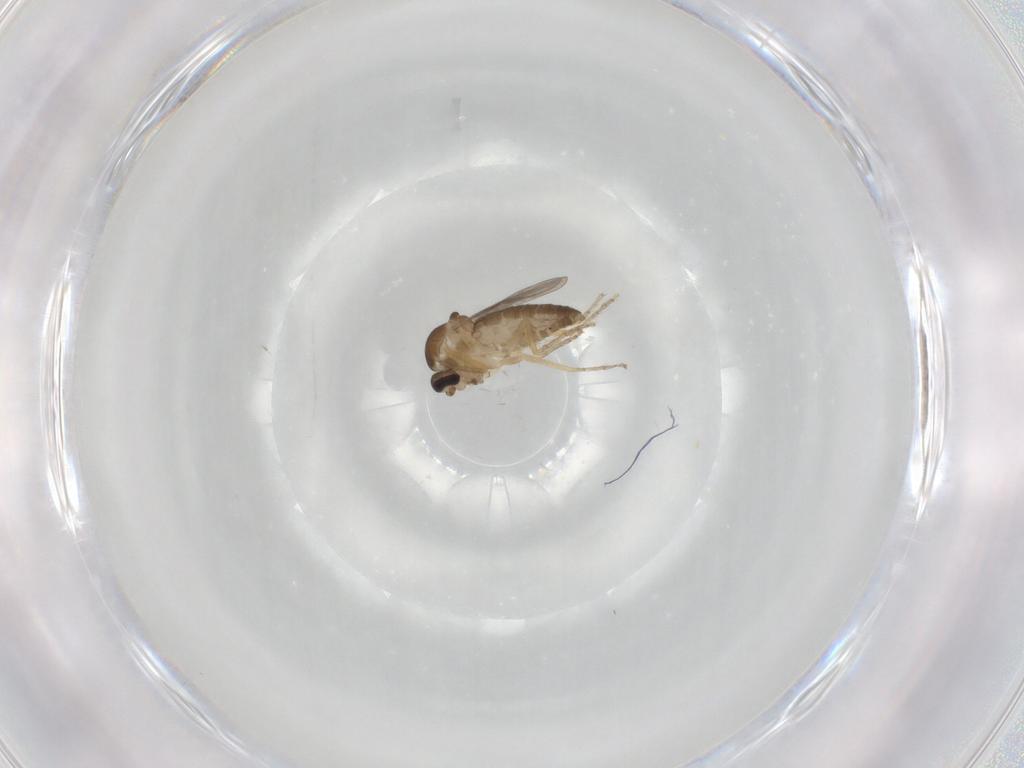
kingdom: Animalia
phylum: Arthropoda
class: Insecta
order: Diptera
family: Ceratopogonidae
